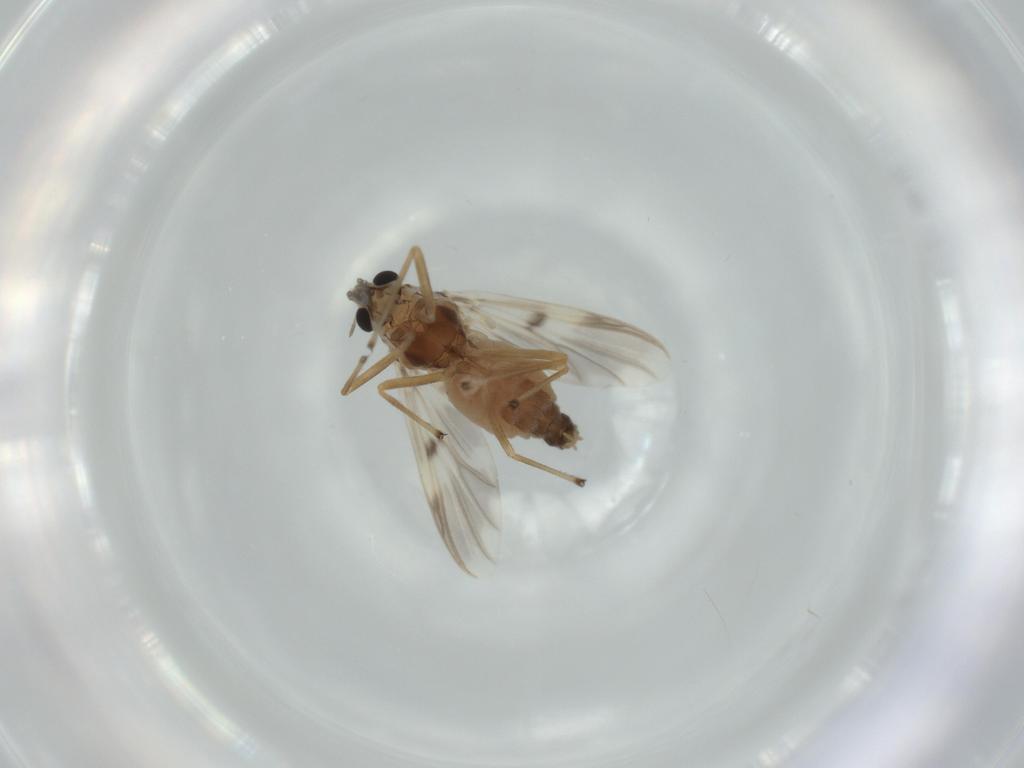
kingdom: Animalia
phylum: Arthropoda
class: Insecta
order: Diptera
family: Chironomidae
